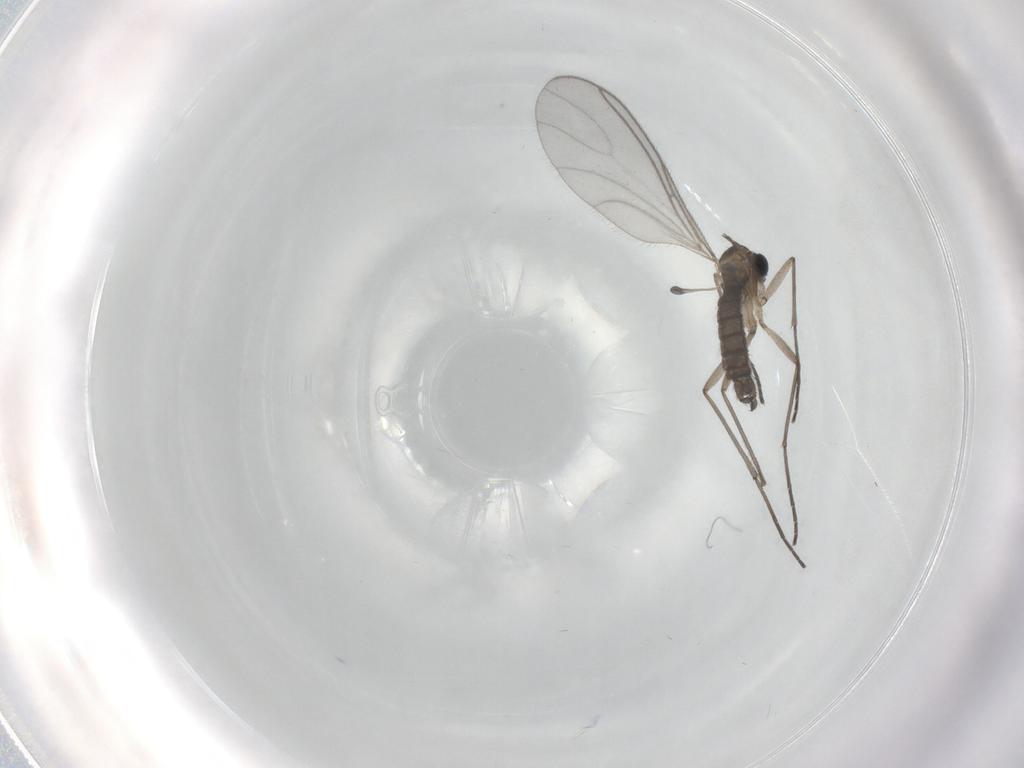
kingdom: Animalia
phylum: Arthropoda
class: Insecta
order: Diptera
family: Sciaridae
